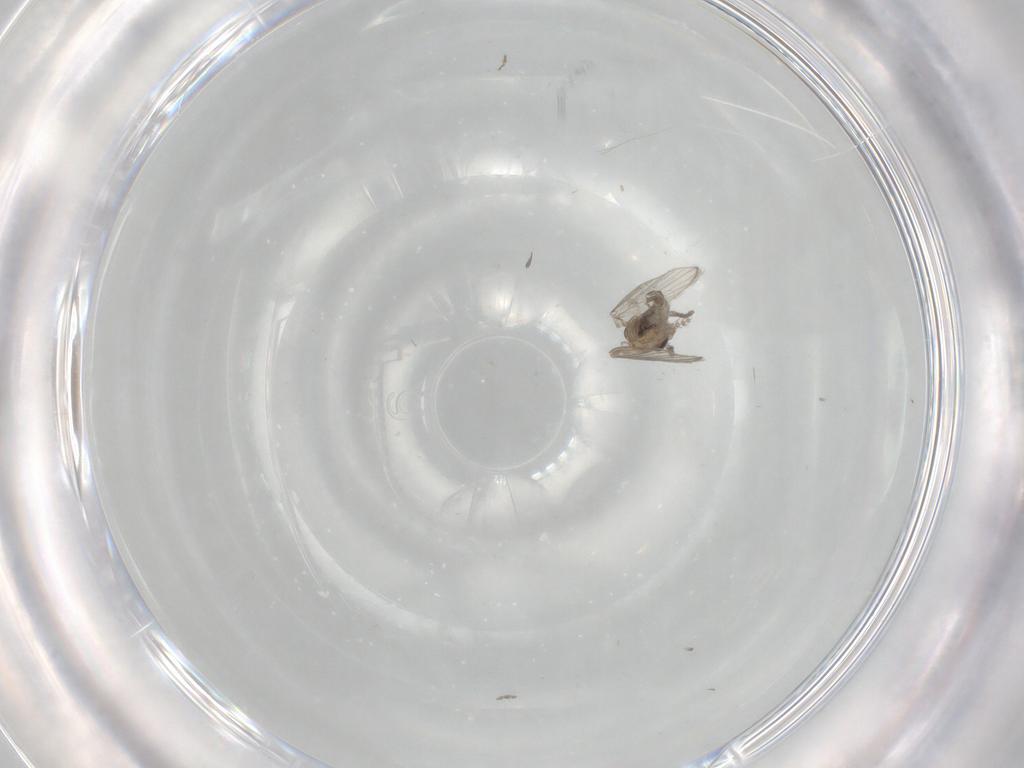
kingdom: Animalia
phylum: Arthropoda
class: Insecta
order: Diptera
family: Psychodidae
